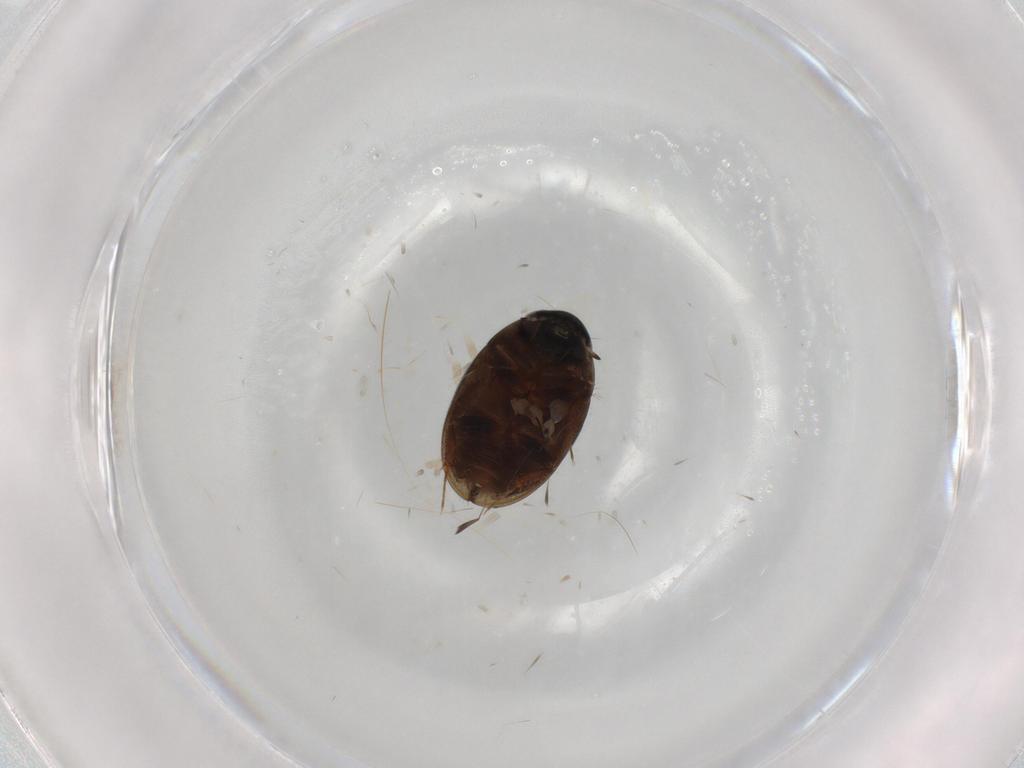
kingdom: Animalia
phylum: Arthropoda
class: Insecta
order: Coleoptera
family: Hydrophilidae
